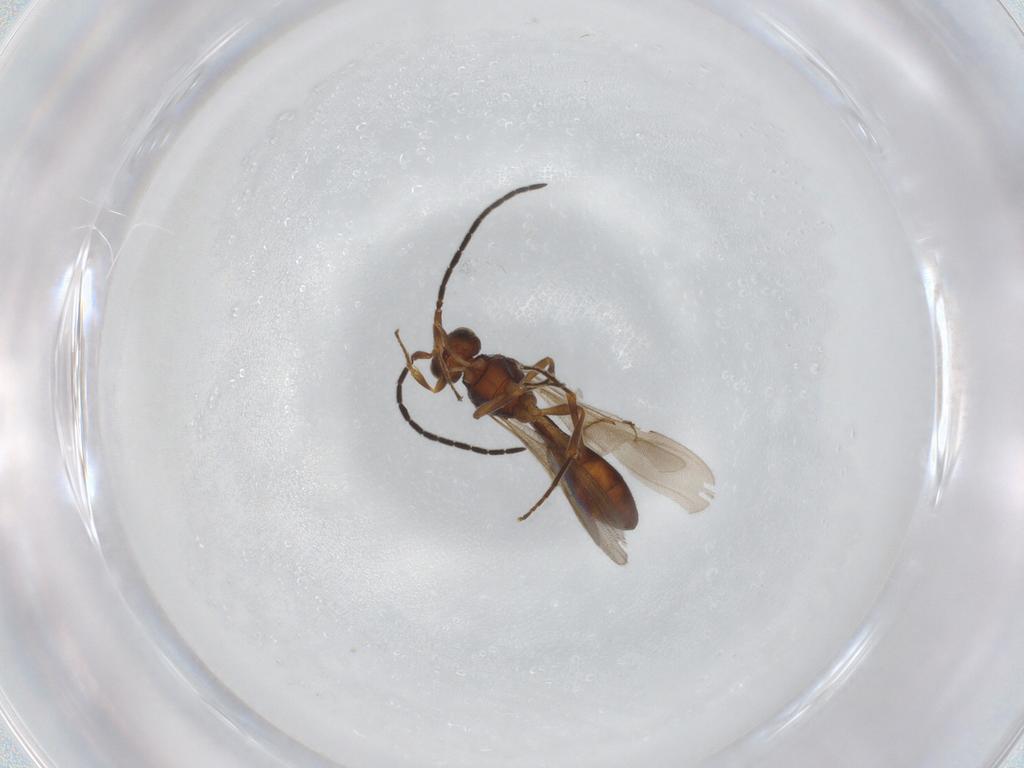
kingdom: Animalia
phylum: Arthropoda
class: Insecta
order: Hymenoptera
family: Scelionidae
